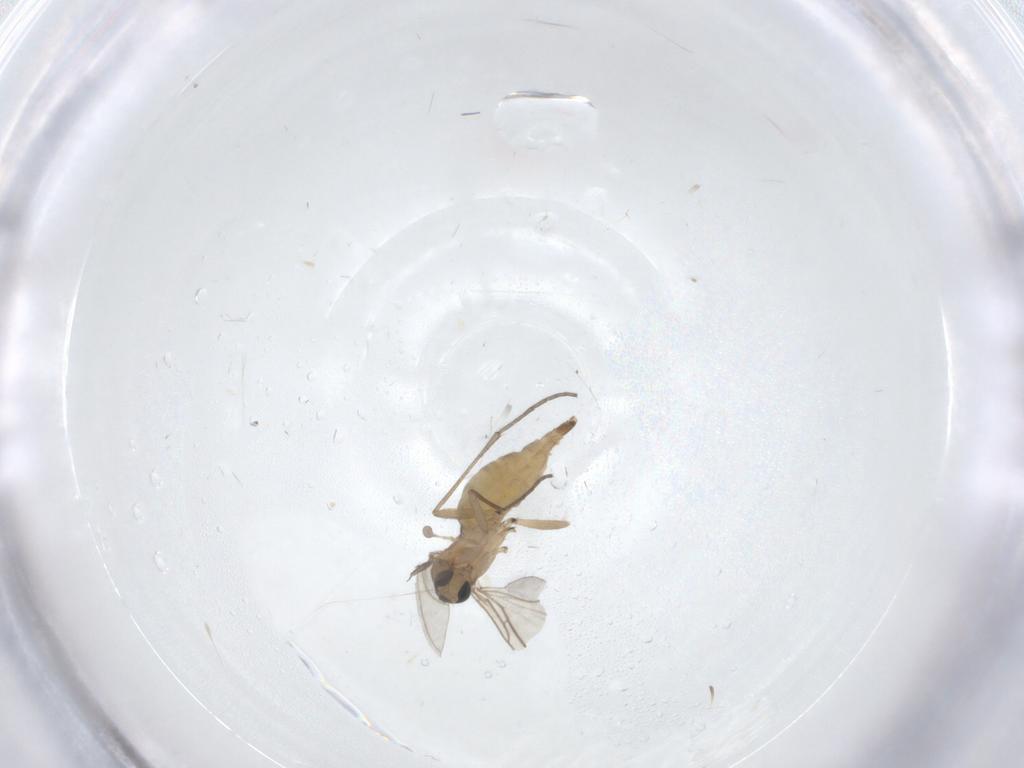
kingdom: Animalia
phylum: Arthropoda
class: Insecta
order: Diptera
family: Sciaridae
